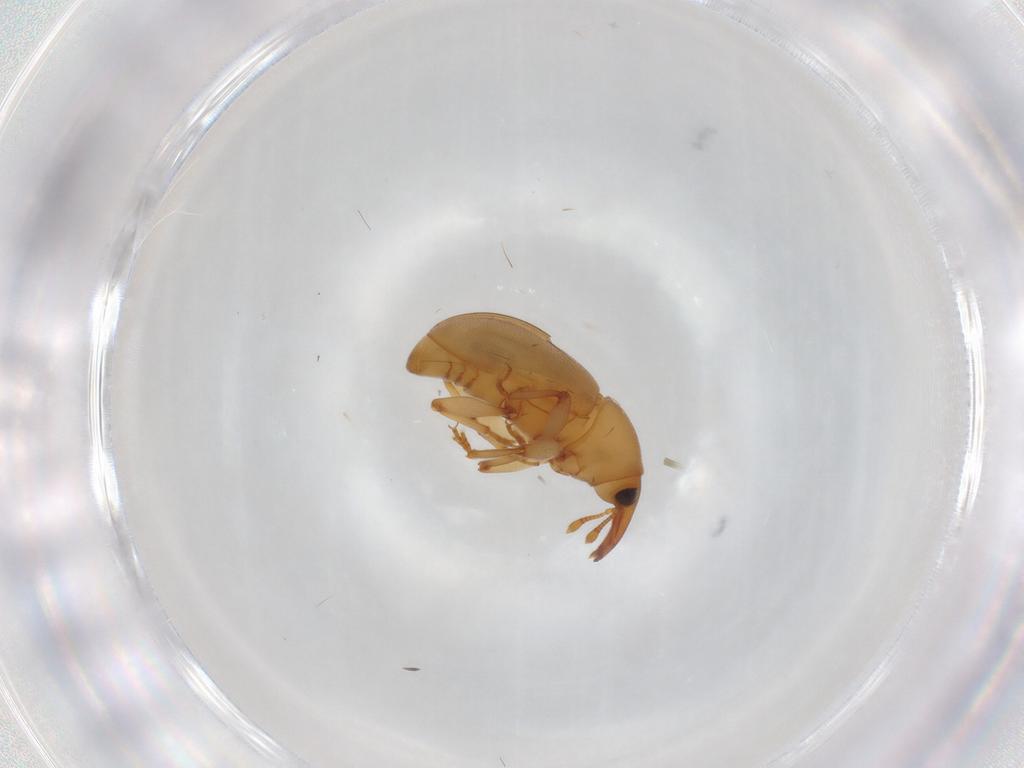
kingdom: Animalia
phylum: Arthropoda
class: Insecta
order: Coleoptera
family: Curculionidae
